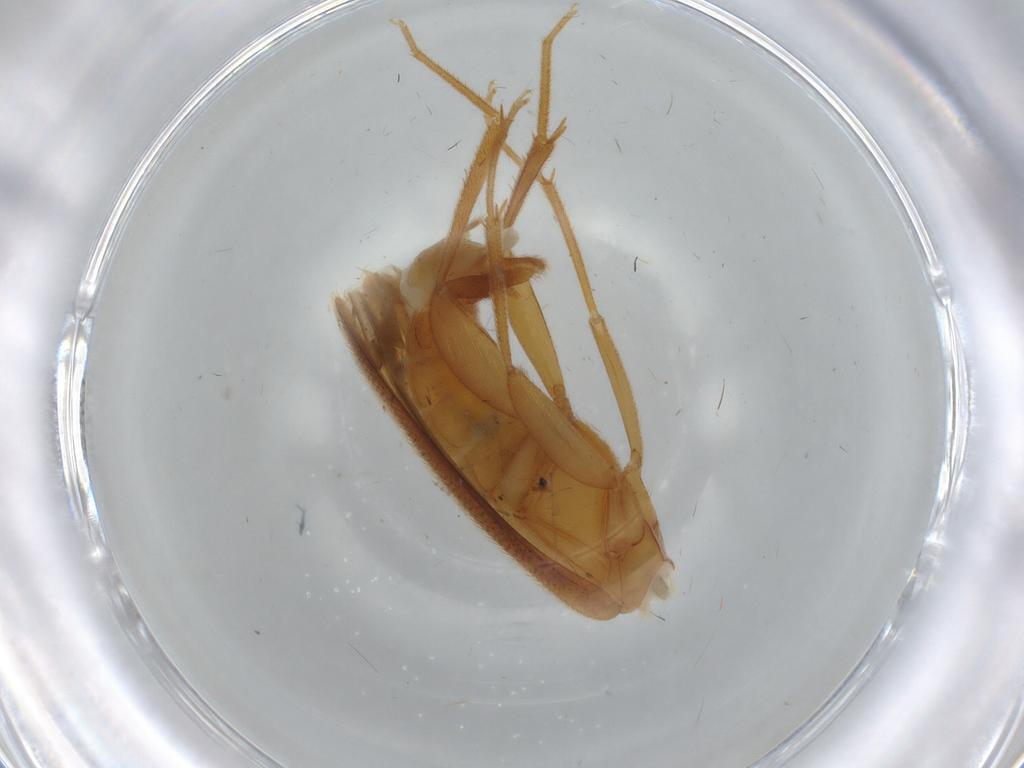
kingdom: Animalia
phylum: Arthropoda
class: Insecta
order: Coleoptera
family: Scraptiidae
